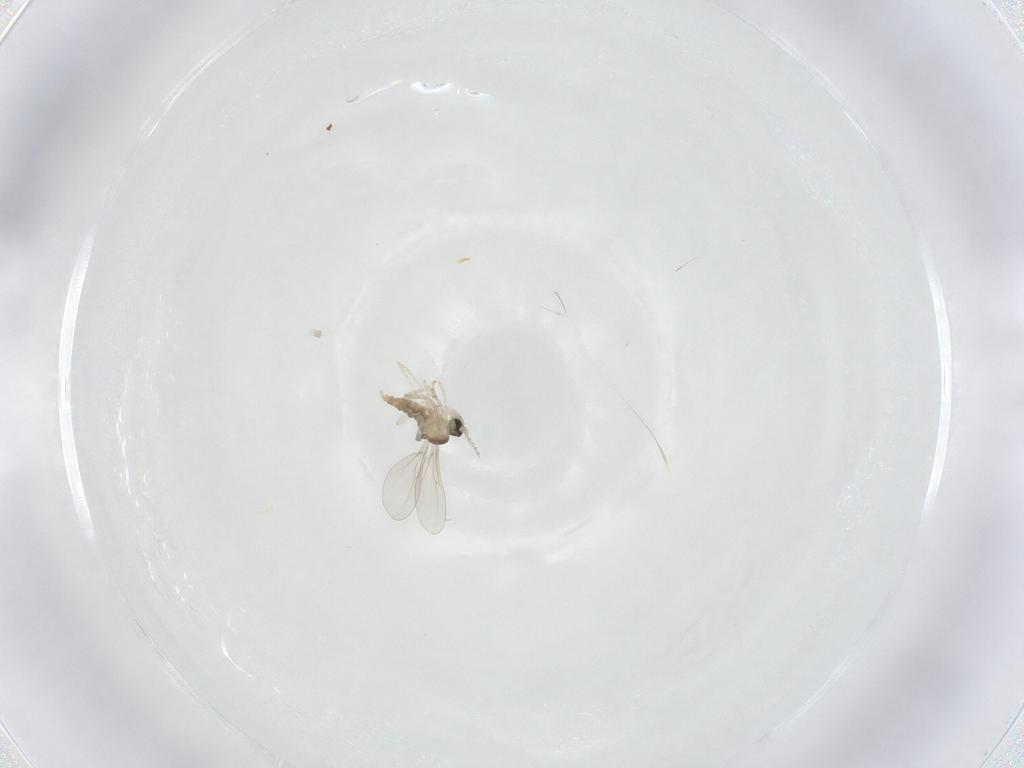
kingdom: Animalia
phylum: Arthropoda
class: Insecta
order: Diptera
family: Cecidomyiidae
